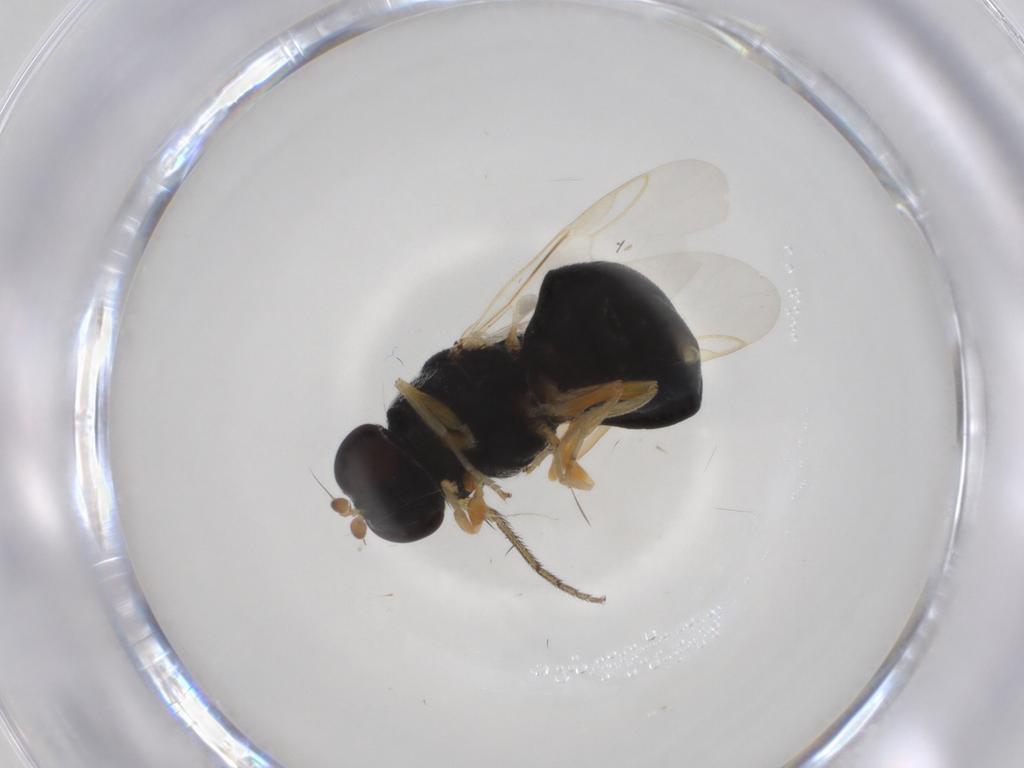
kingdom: Animalia
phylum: Arthropoda
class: Insecta
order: Diptera
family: Stratiomyidae
